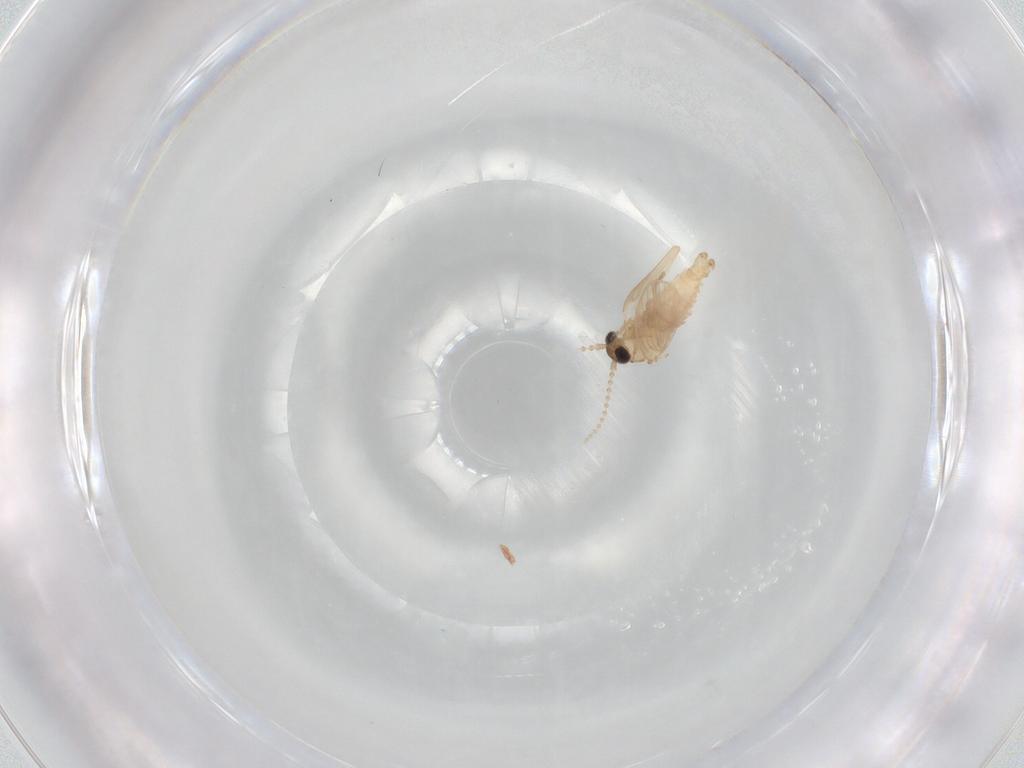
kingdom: Animalia
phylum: Arthropoda
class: Insecta
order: Diptera
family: Psychodidae
